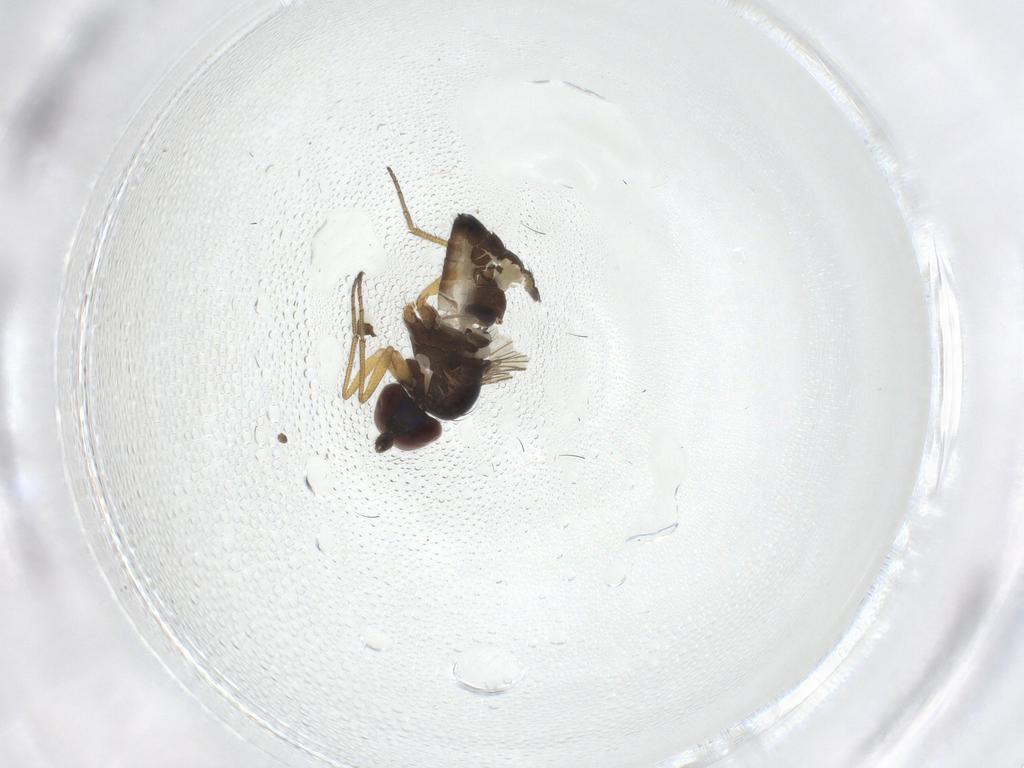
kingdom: Animalia
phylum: Arthropoda
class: Insecta
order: Diptera
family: Dolichopodidae
